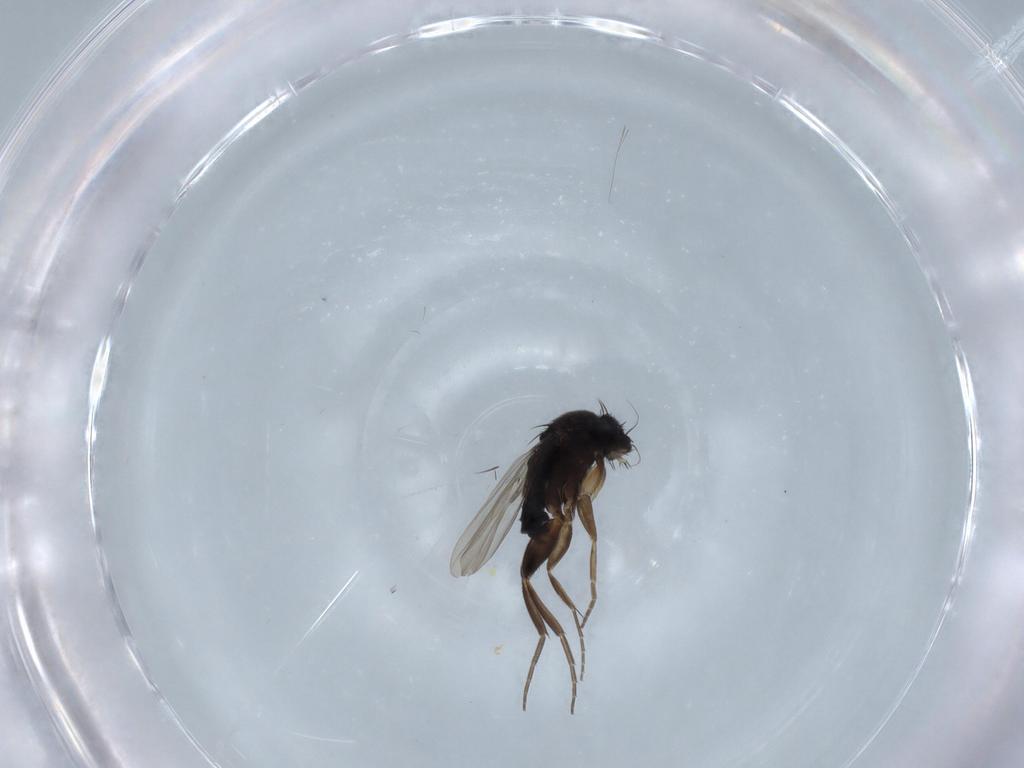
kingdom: Animalia
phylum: Arthropoda
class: Insecta
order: Diptera
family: Phoridae
